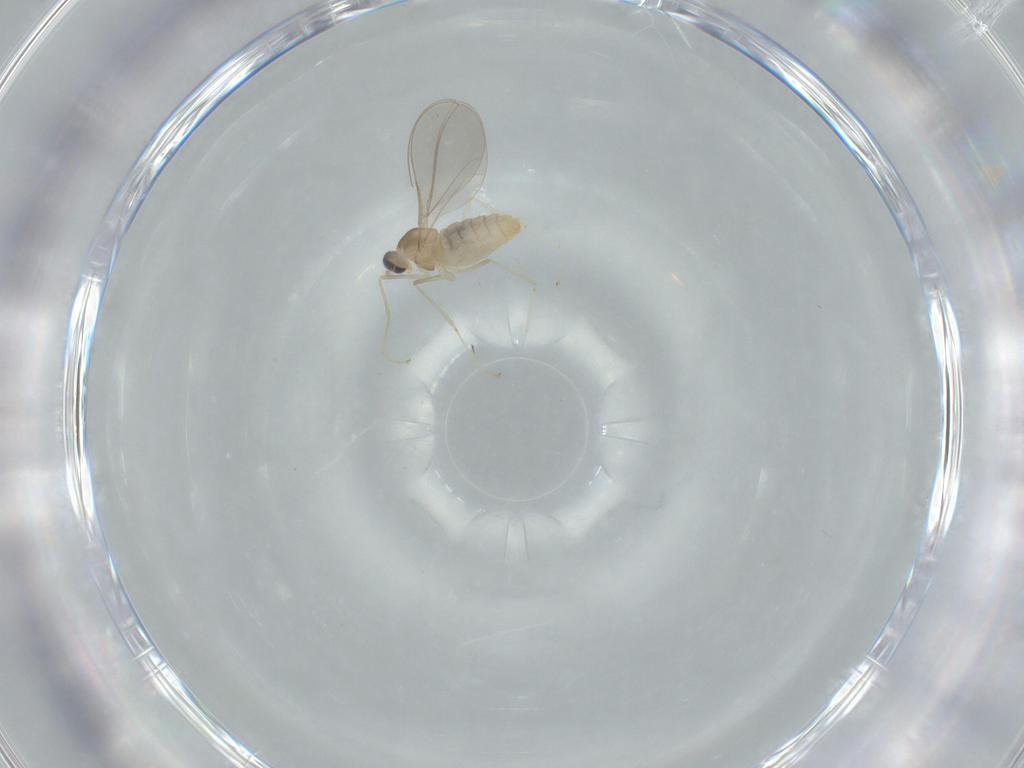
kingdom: Animalia
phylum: Arthropoda
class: Insecta
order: Diptera
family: Cecidomyiidae
